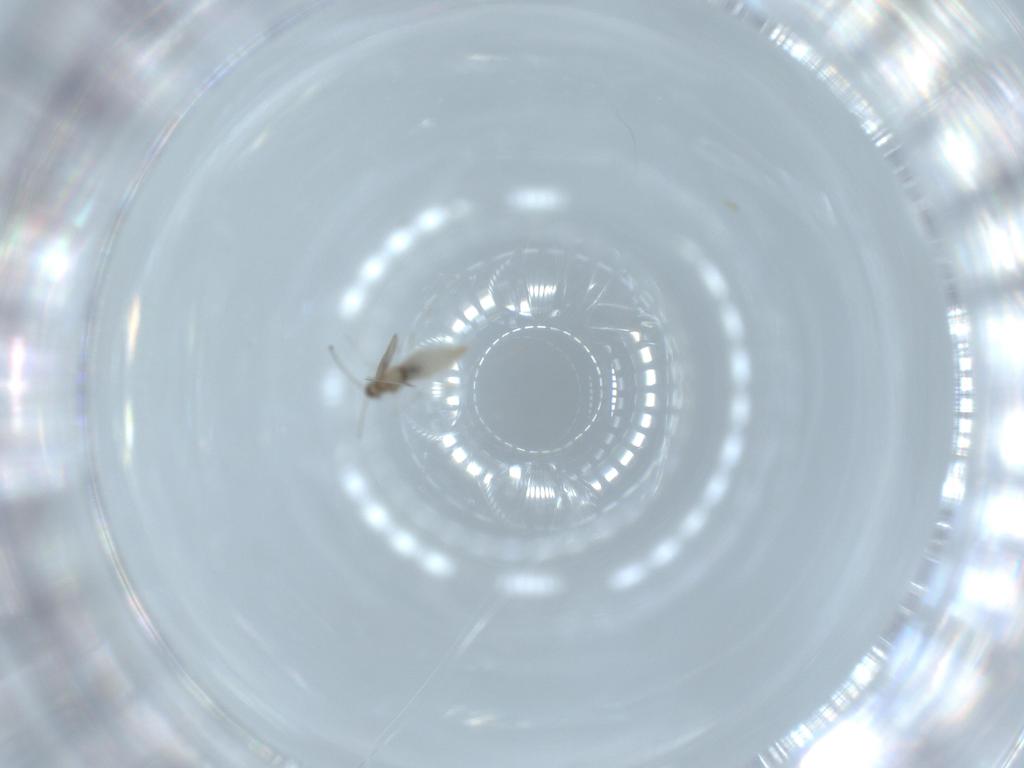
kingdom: Animalia
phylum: Arthropoda
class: Insecta
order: Diptera
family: Cecidomyiidae
